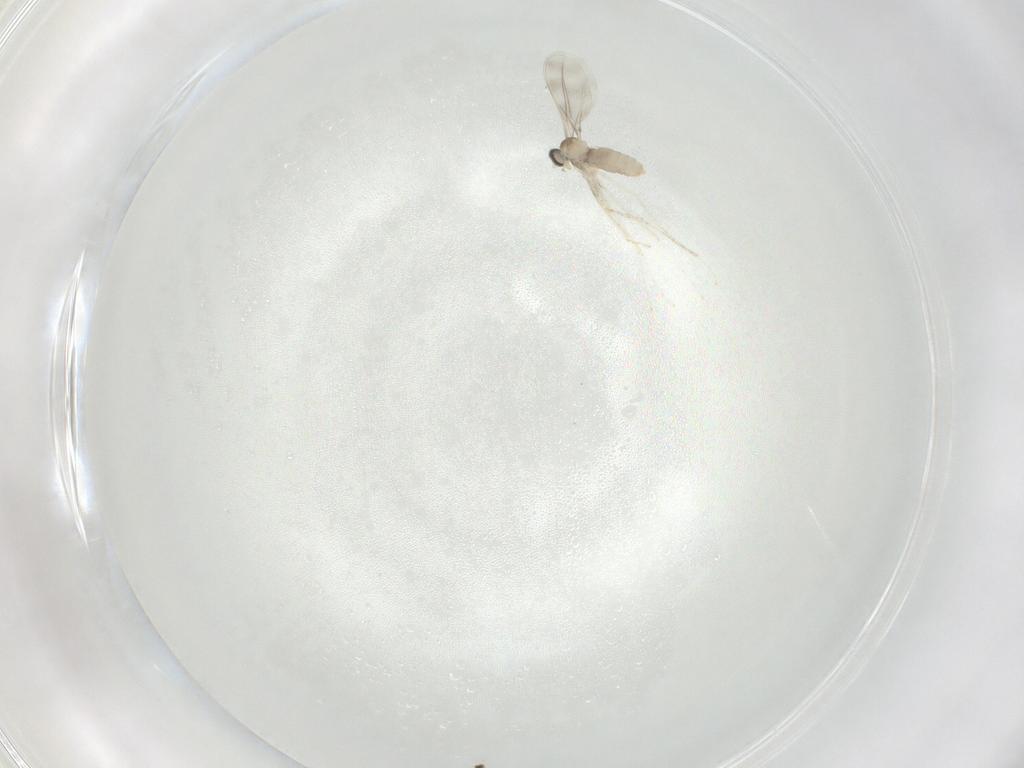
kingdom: Animalia
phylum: Arthropoda
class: Insecta
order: Diptera
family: Cecidomyiidae
